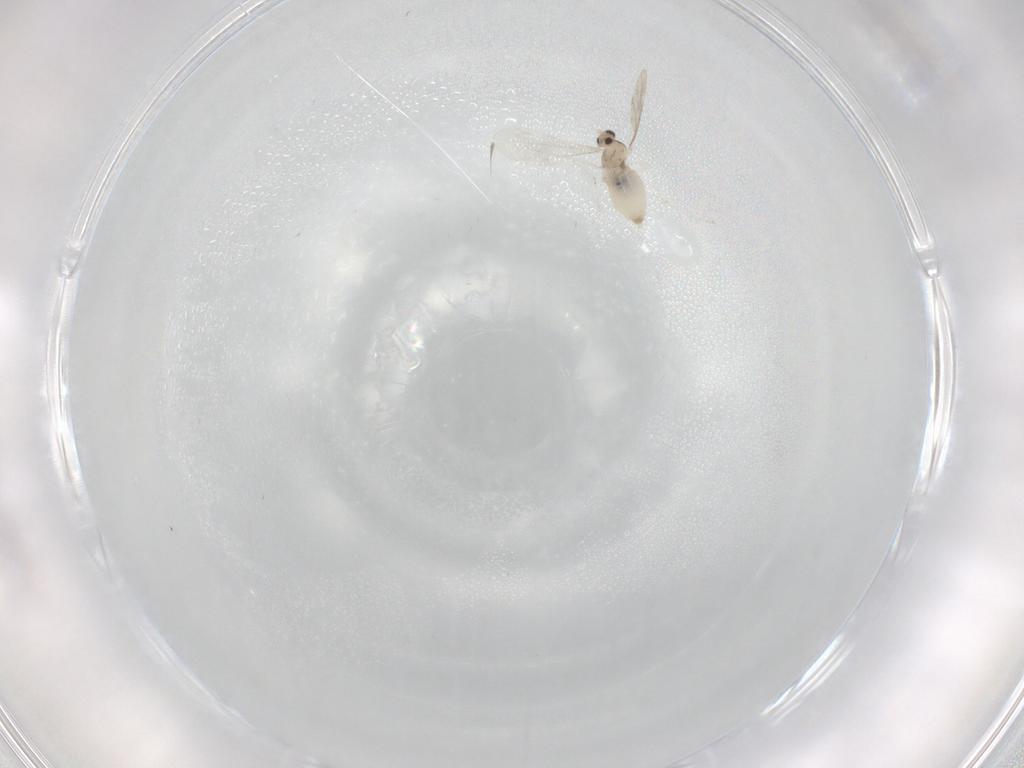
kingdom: Animalia
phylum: Arthropoda
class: Insecta
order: Diptera
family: Cecidomyiidae
